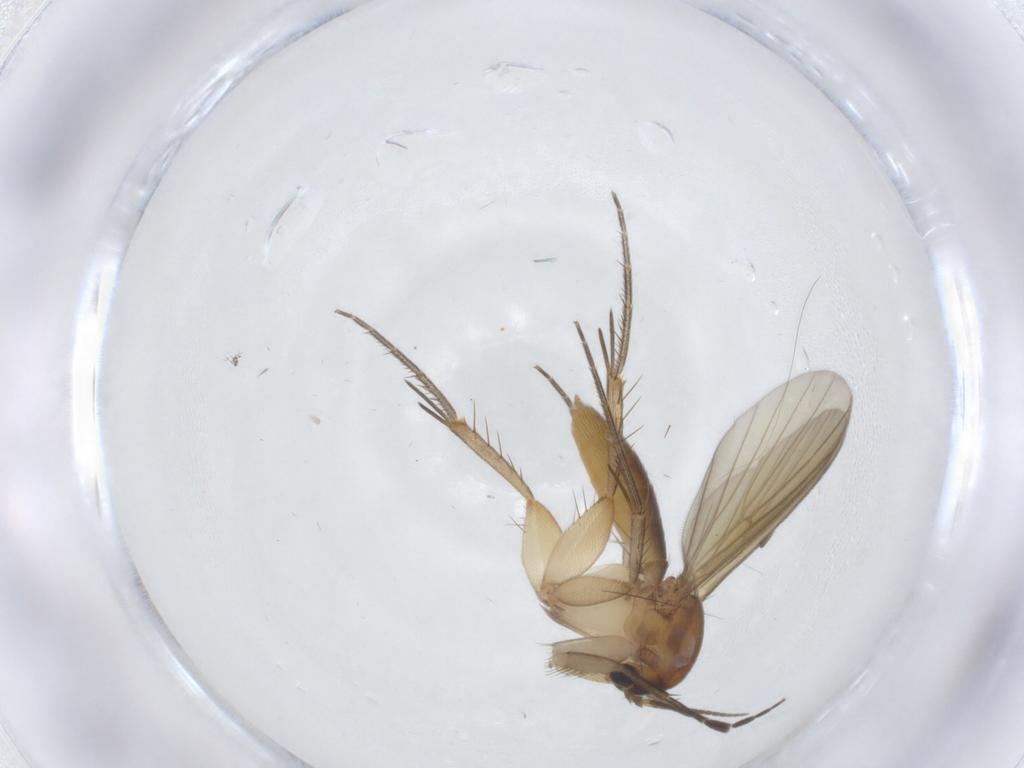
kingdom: Animalia
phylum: Arthropoda
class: Insecta
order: Diptera
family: Mycetophilidae
